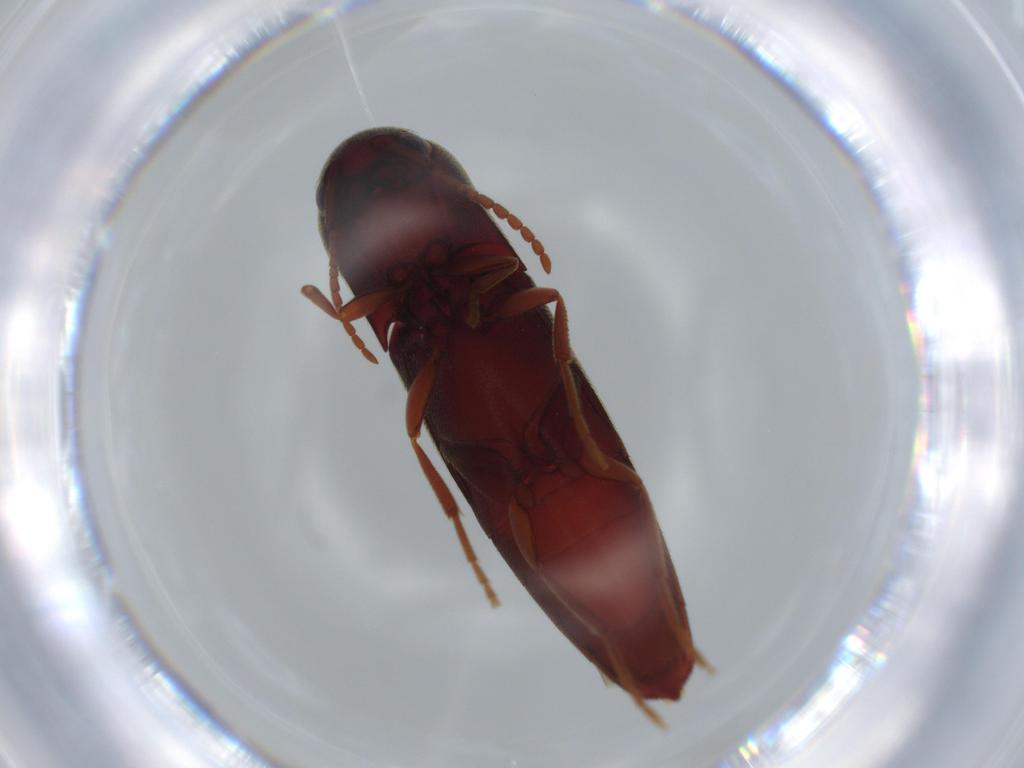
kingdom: Animalia
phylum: Arthropoda
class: Insecta
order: Coleoptera
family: Eucnemidae
